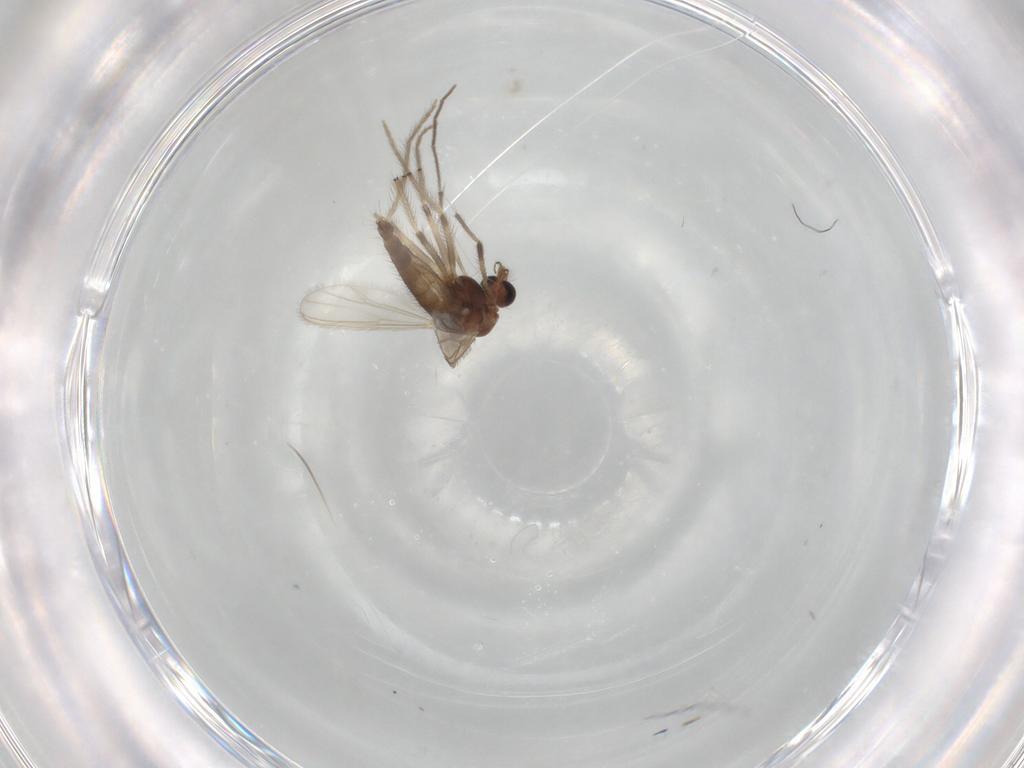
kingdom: Animalia
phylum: Arthropoda
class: Insecta
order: Diptera
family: Chironomidae
